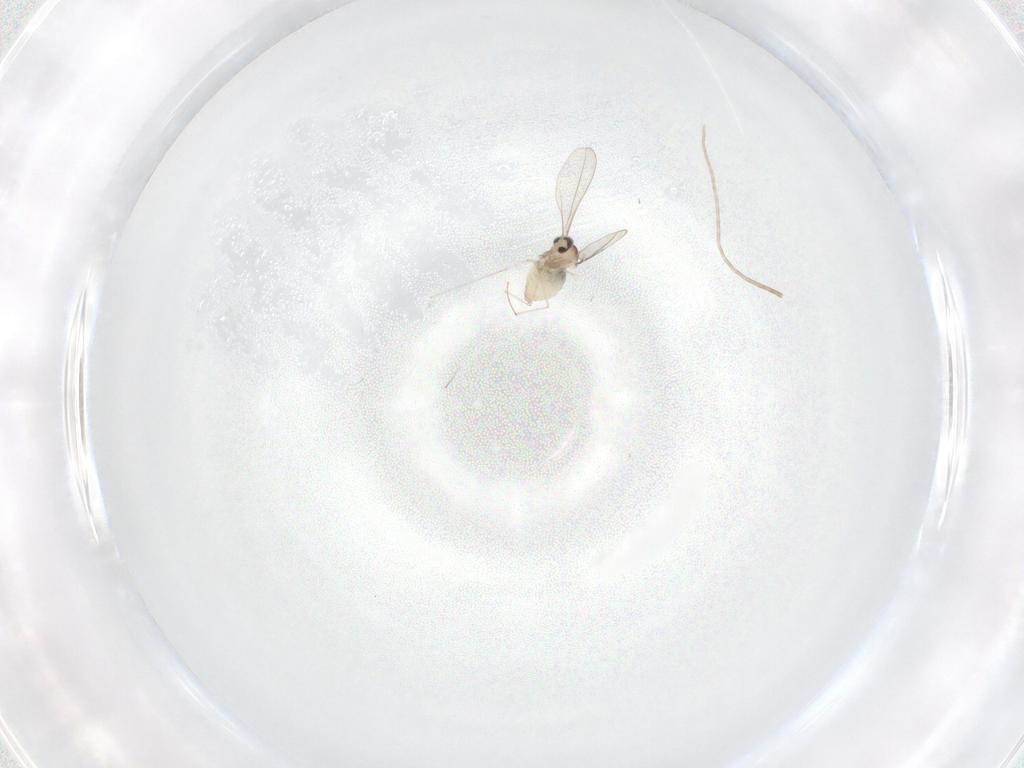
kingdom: Animalia
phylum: Arthropoda
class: Insecta
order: Diptera
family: Cecidomyiidae
